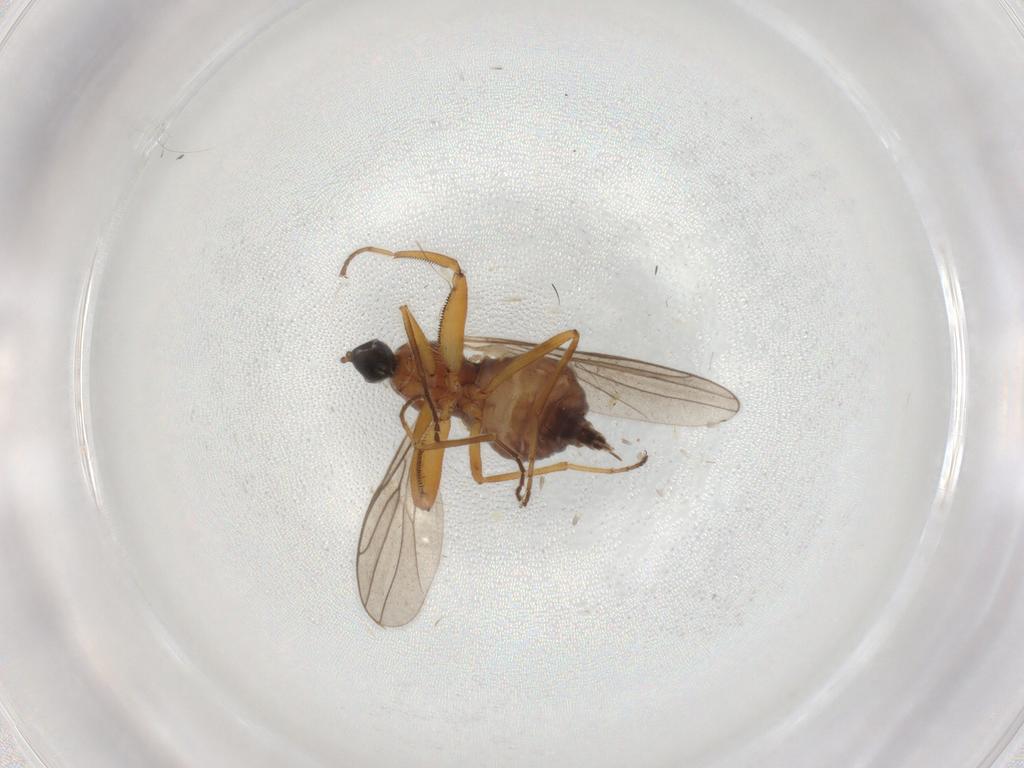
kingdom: Animalia
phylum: Arthropoda
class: Insecta
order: Diptera
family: Hybotidae
